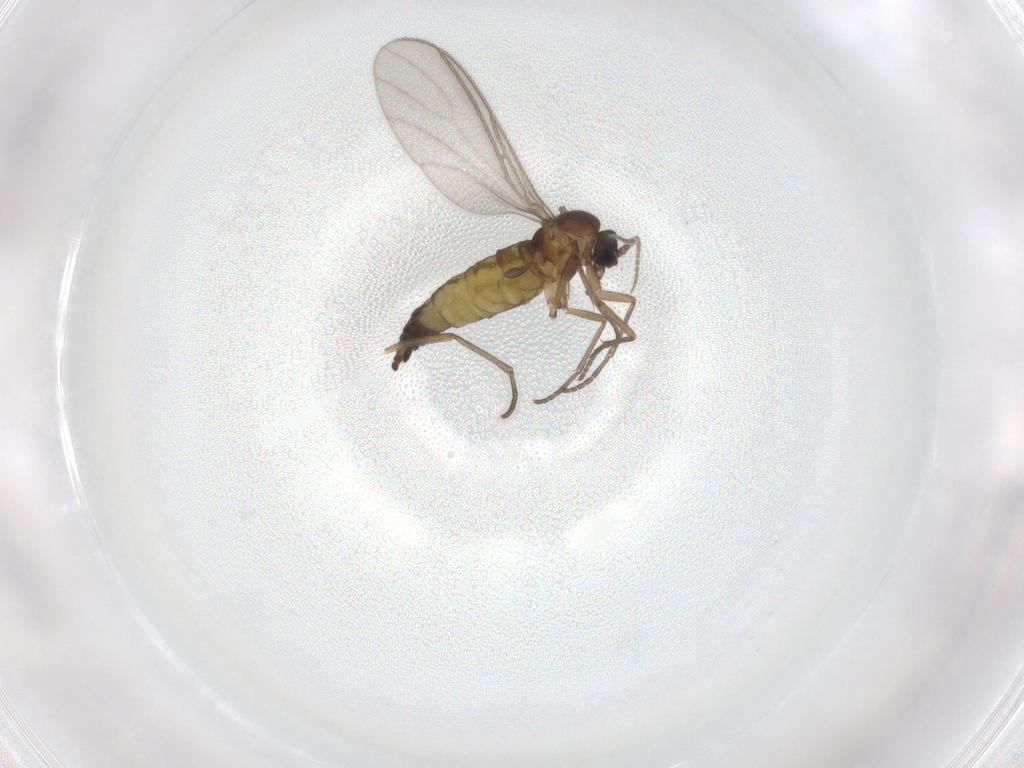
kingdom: Animalia
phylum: Arthropoda
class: Insecta
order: Diptera
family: Sciaridae
